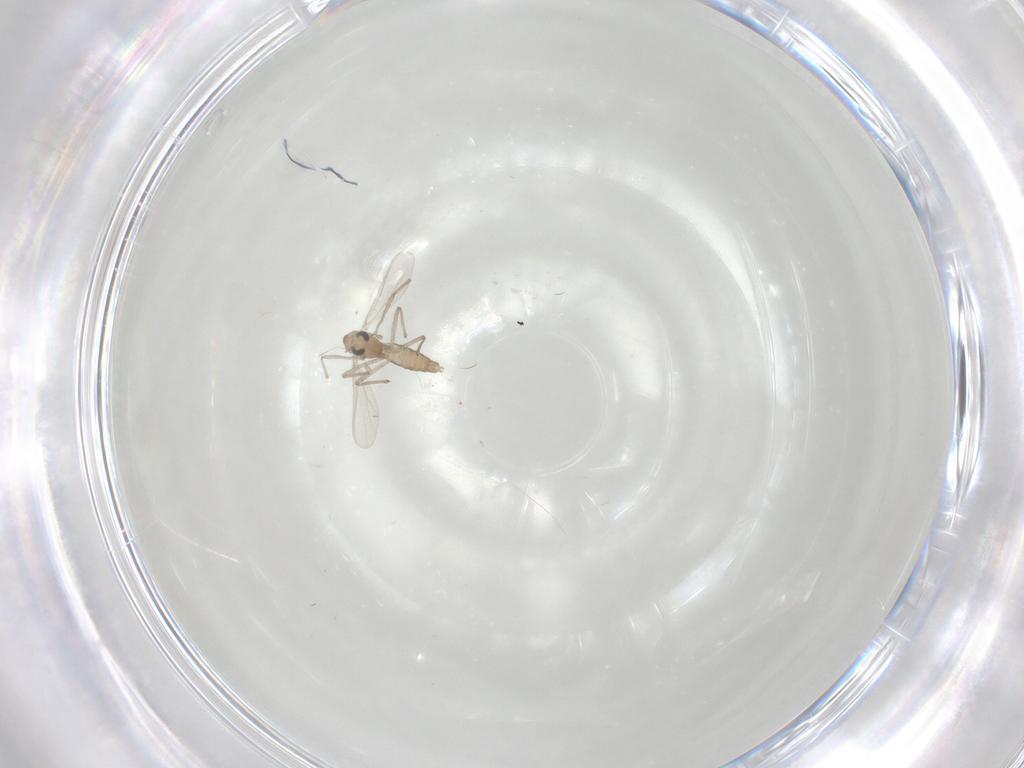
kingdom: Animalia
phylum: Arthropoda
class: Insecta
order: Diptera
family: Chironomidae
